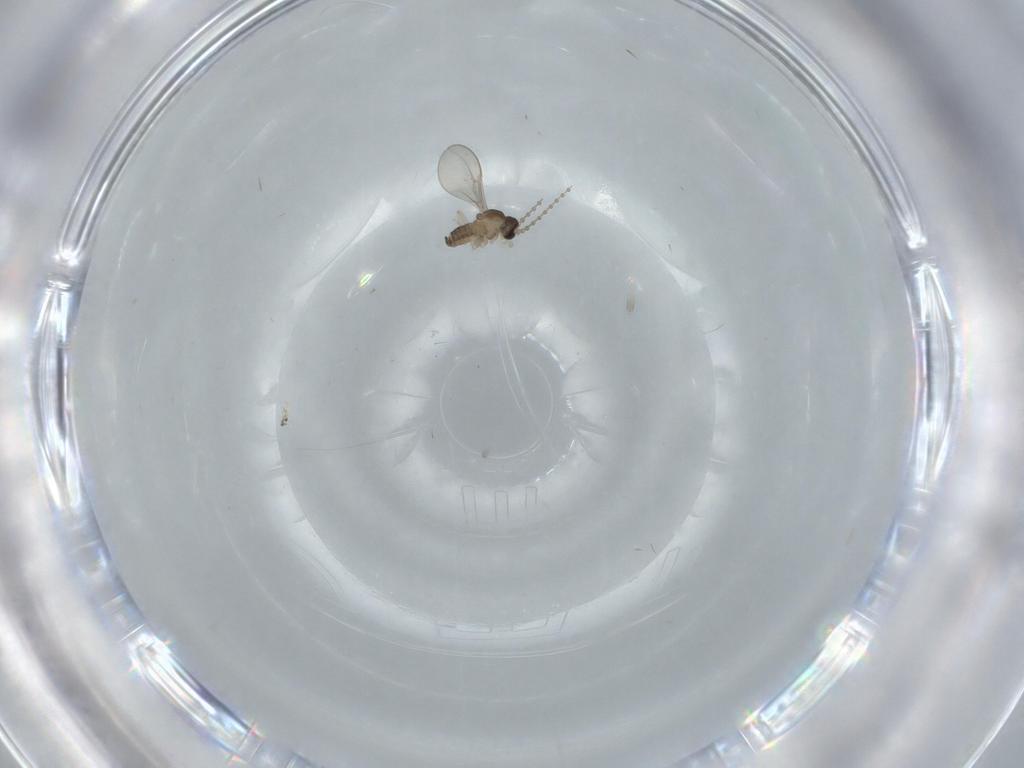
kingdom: Animalia
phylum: Arthropoda
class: Insecta
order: Diptera
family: Cecidomyiidae
